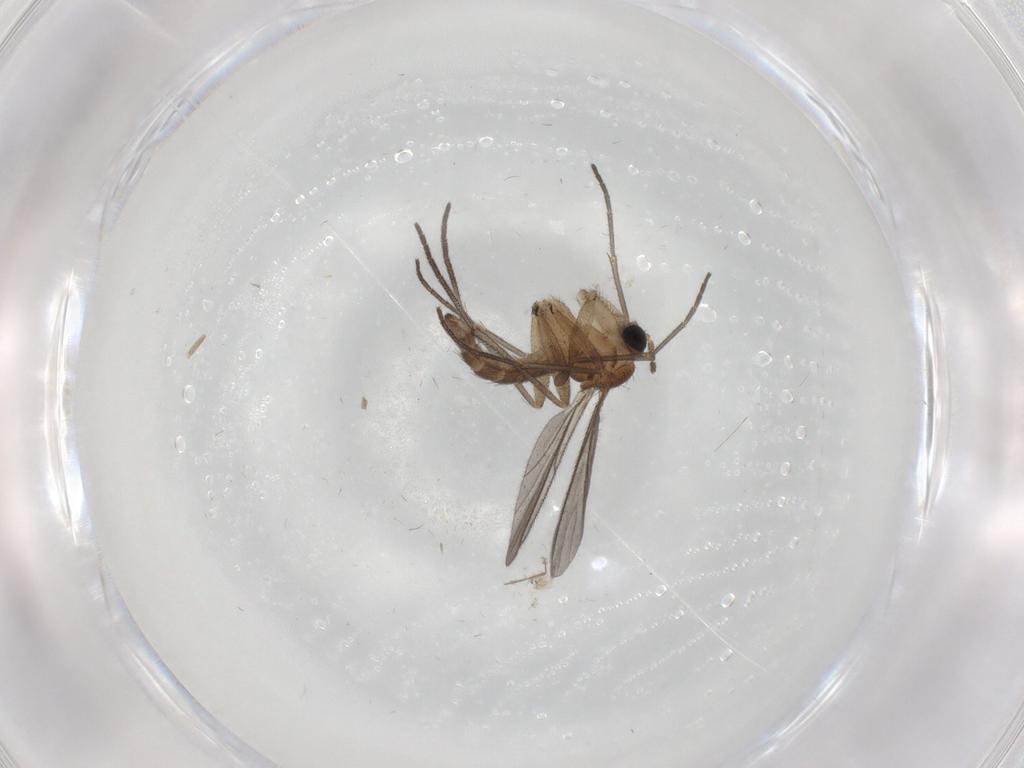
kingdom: Animalia
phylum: Arthropoda
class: Insecta
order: Diptera
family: Sciaridae
